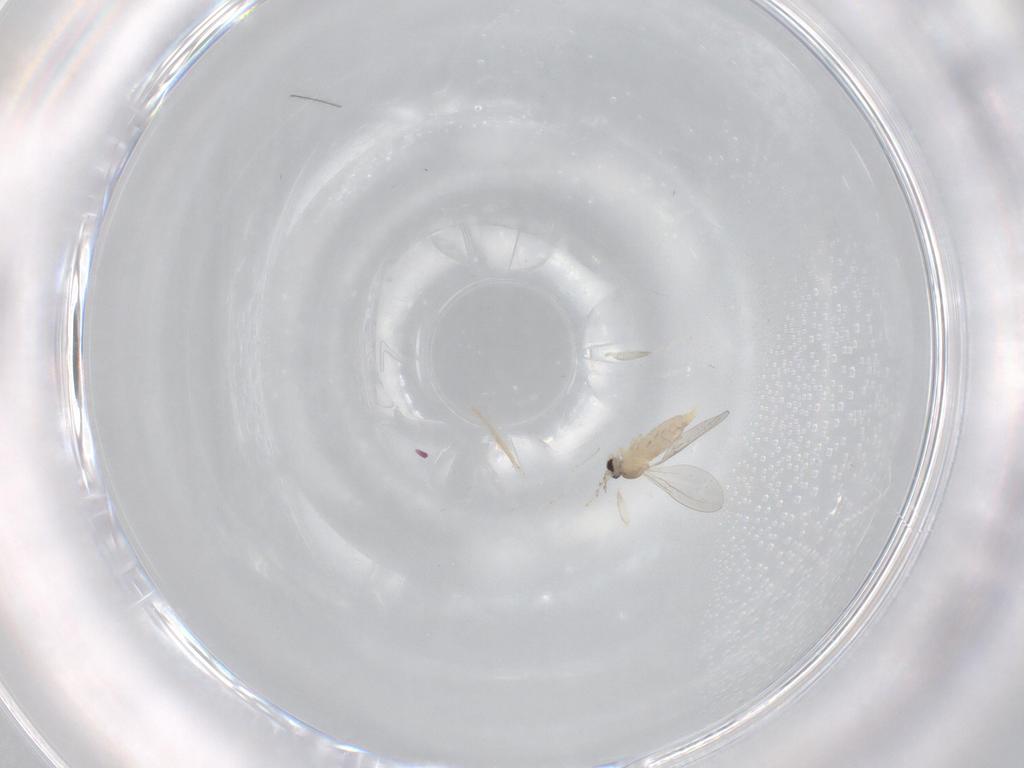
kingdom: Animalia
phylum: Arthropoda
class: Insecta
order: Diptera
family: Cecidomyiidae
